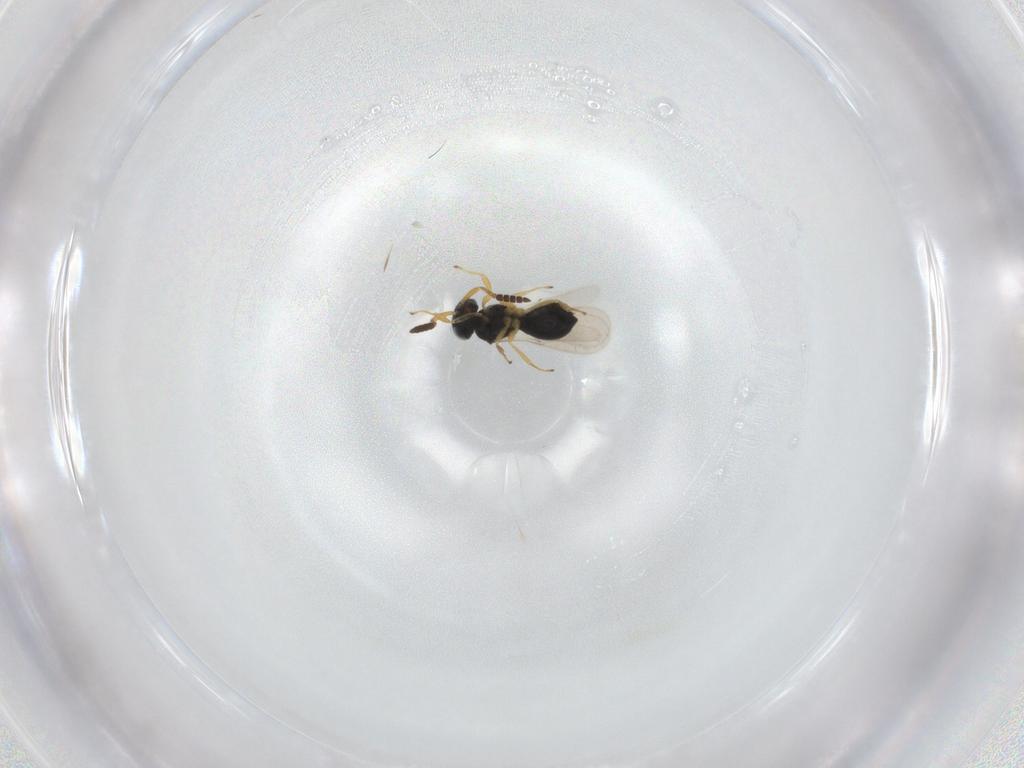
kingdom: Animalia
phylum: Arthropoda
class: Insecta
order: Hymenoptera
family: Scelionidae
